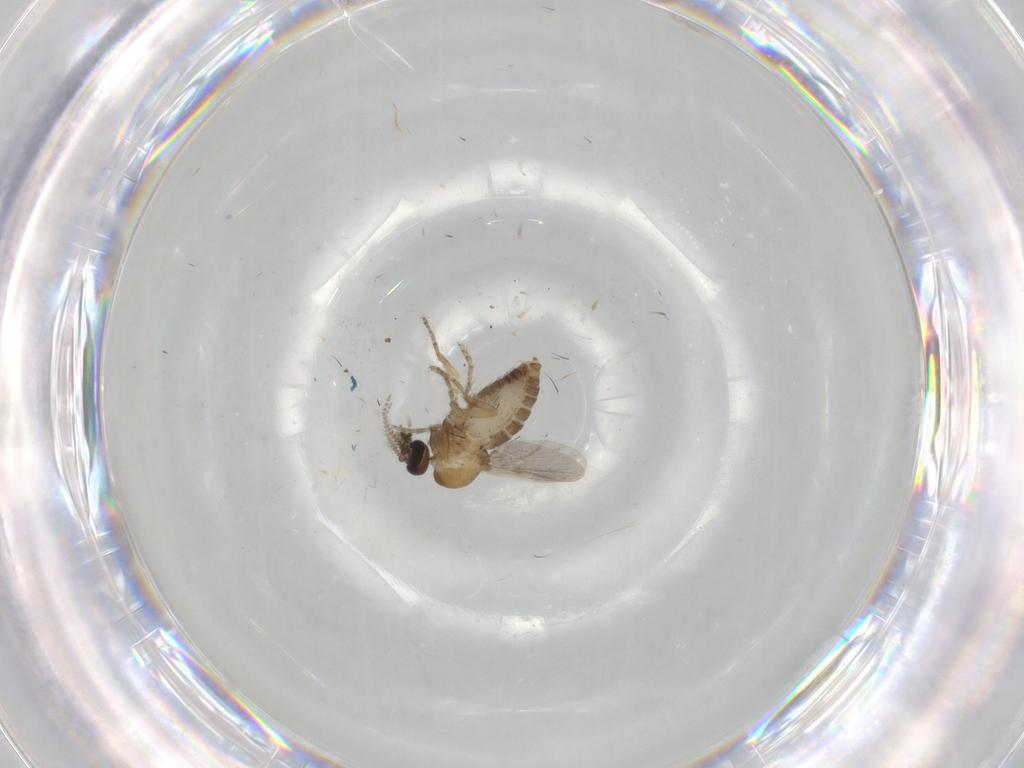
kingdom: Animalia
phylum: Arthropoda
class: Insecta
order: Diptera
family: Ceratopogonidae
